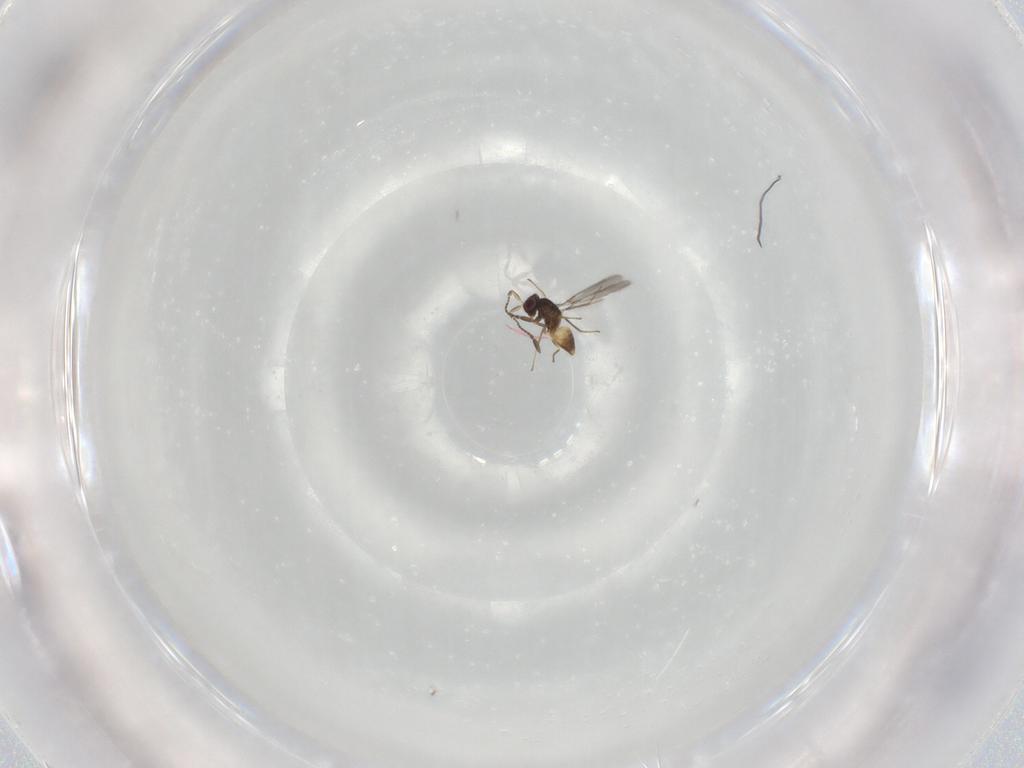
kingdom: Animalia
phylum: Arthropoda
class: Insecta
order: Hymenoptera
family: Mymaridae
